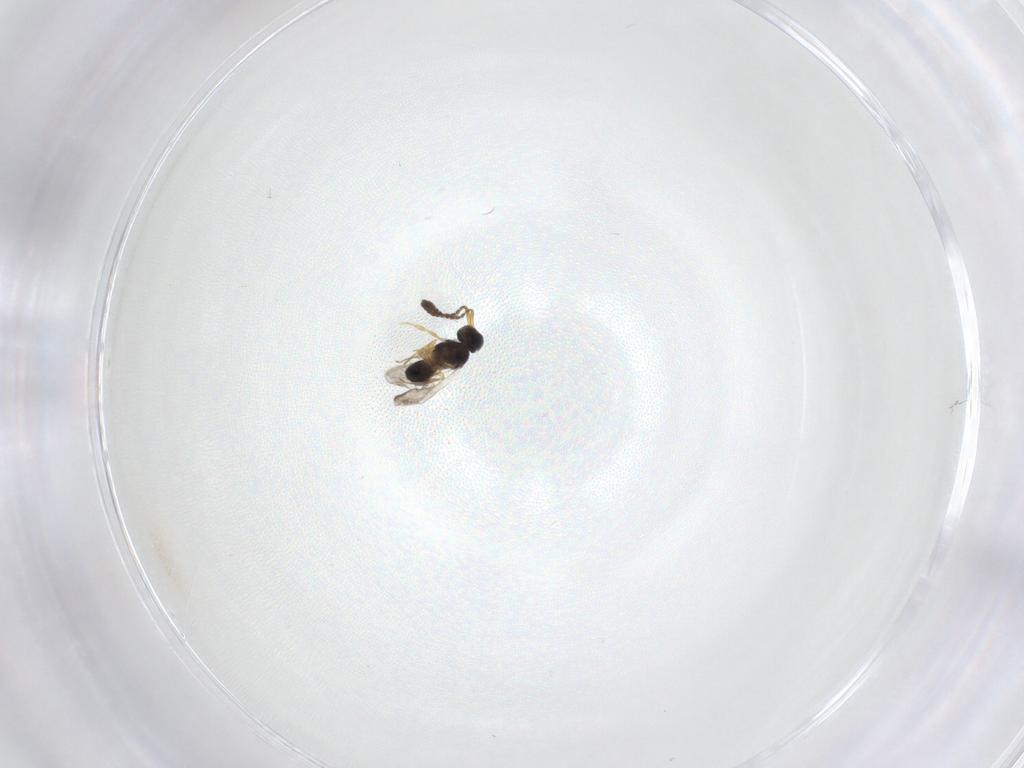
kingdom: Animalia
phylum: Arthropoda
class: Insecta
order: Hymenoptera
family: Scelionidae
